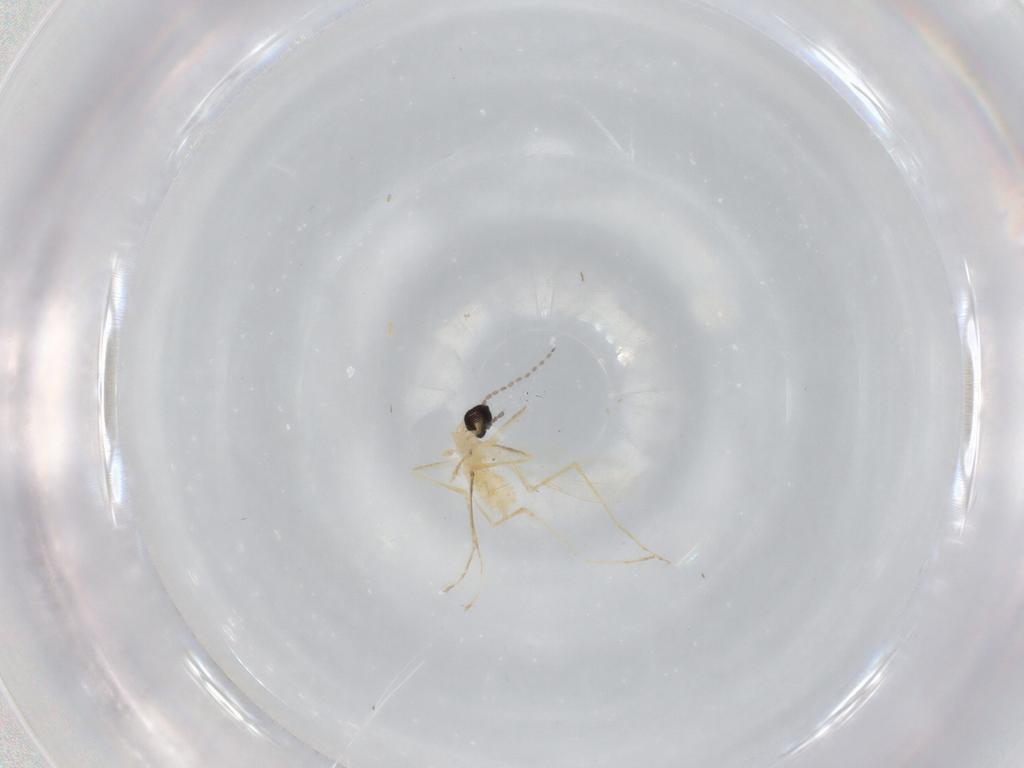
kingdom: Animalia
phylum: Arthropoda
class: Insecta
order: Diptera
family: Cecidomyiidae
